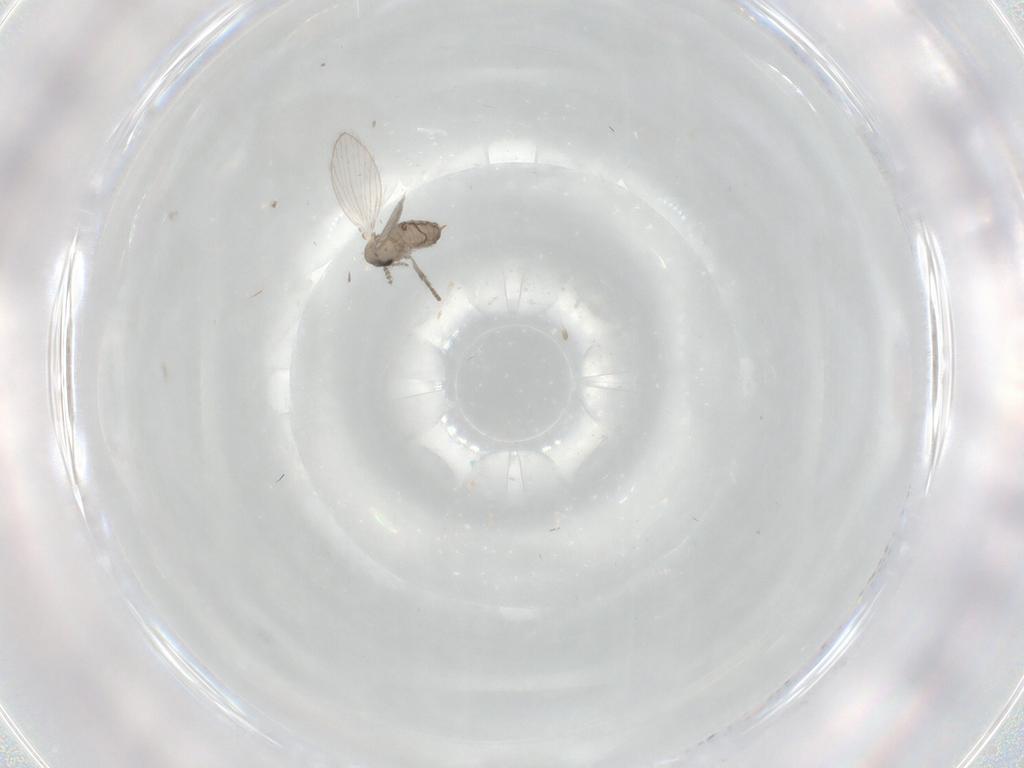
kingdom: Animalia
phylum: Arthropoda
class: Insecta
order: Diptera
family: Psychodidae
